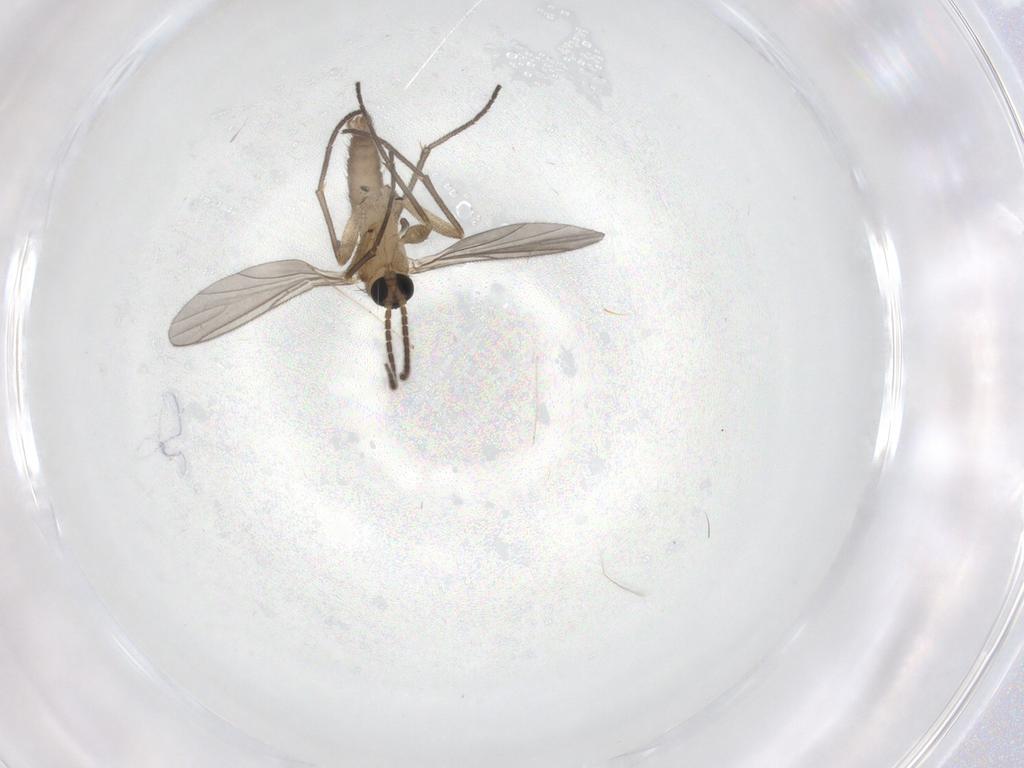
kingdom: Animalia
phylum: Arthropoda
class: Insecta
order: Diptera
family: Sciaridae
